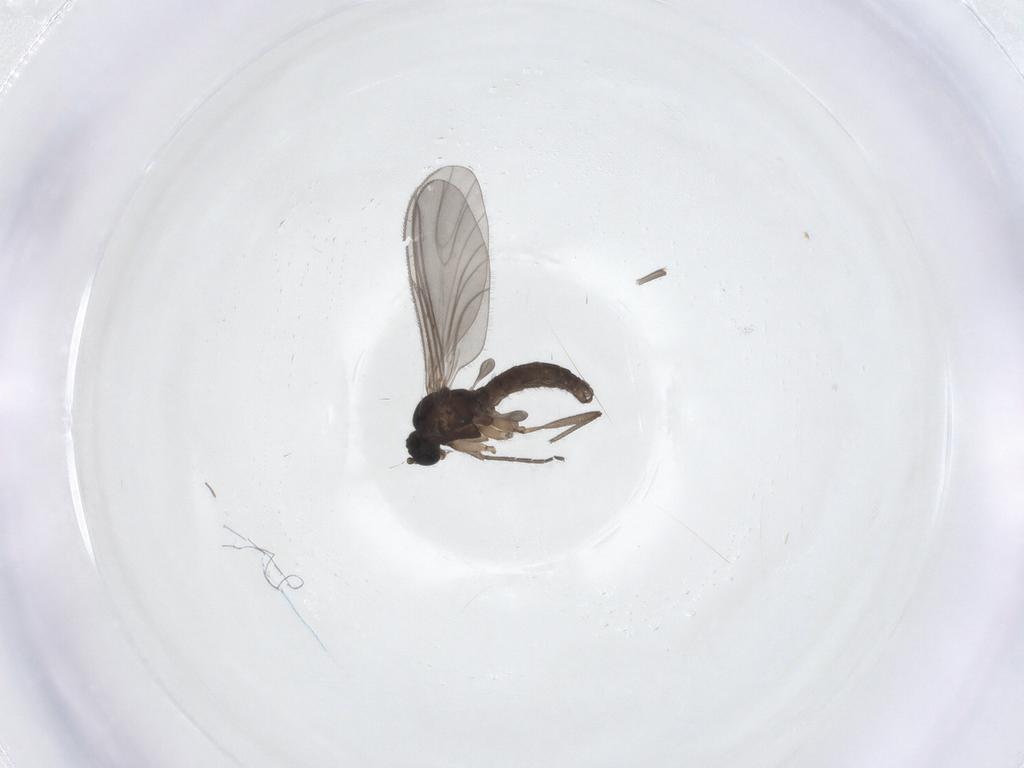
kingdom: Animalia
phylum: Arthropoda
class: Insecta
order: Diptera
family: Sciaridae
